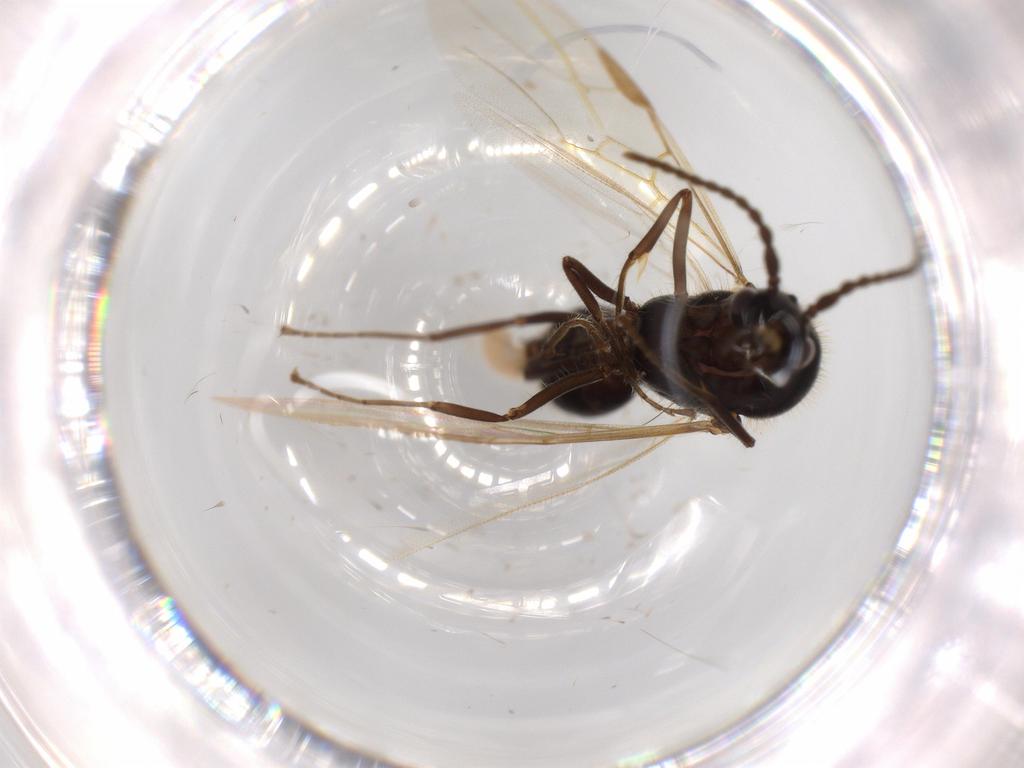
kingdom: Animalia
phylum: Arthropoda
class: Insecta
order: Hymenoptera
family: Formicidae
